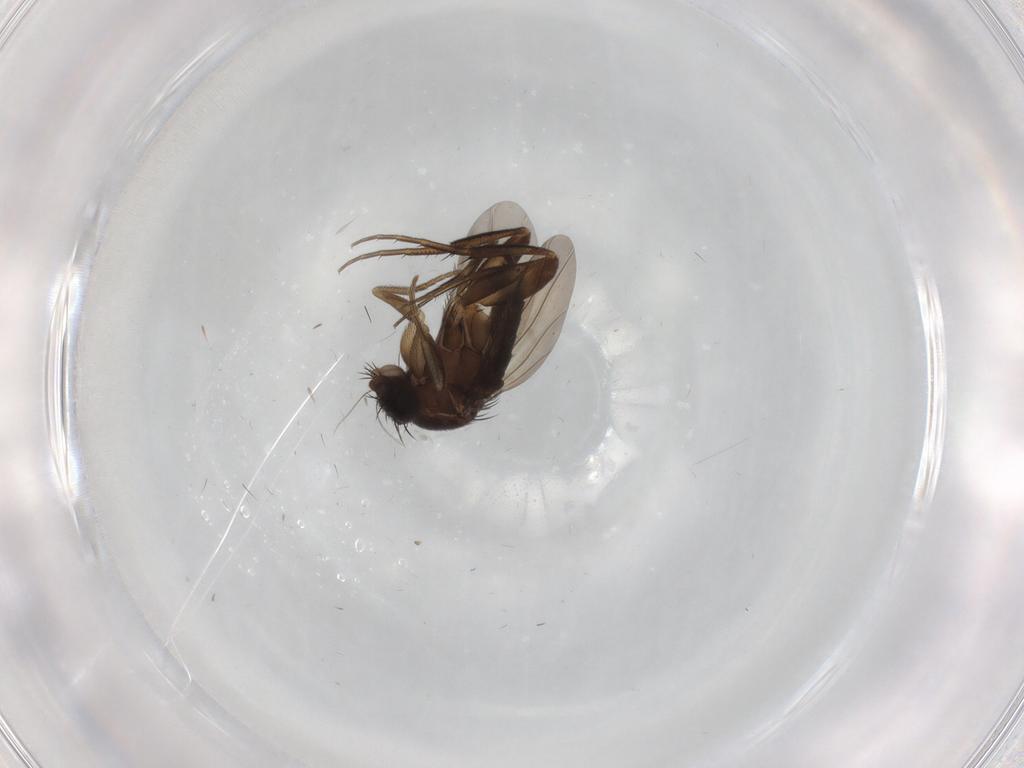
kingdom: Animalia
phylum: Arthropoda
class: Insecta
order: Diptera
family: Phoridae
